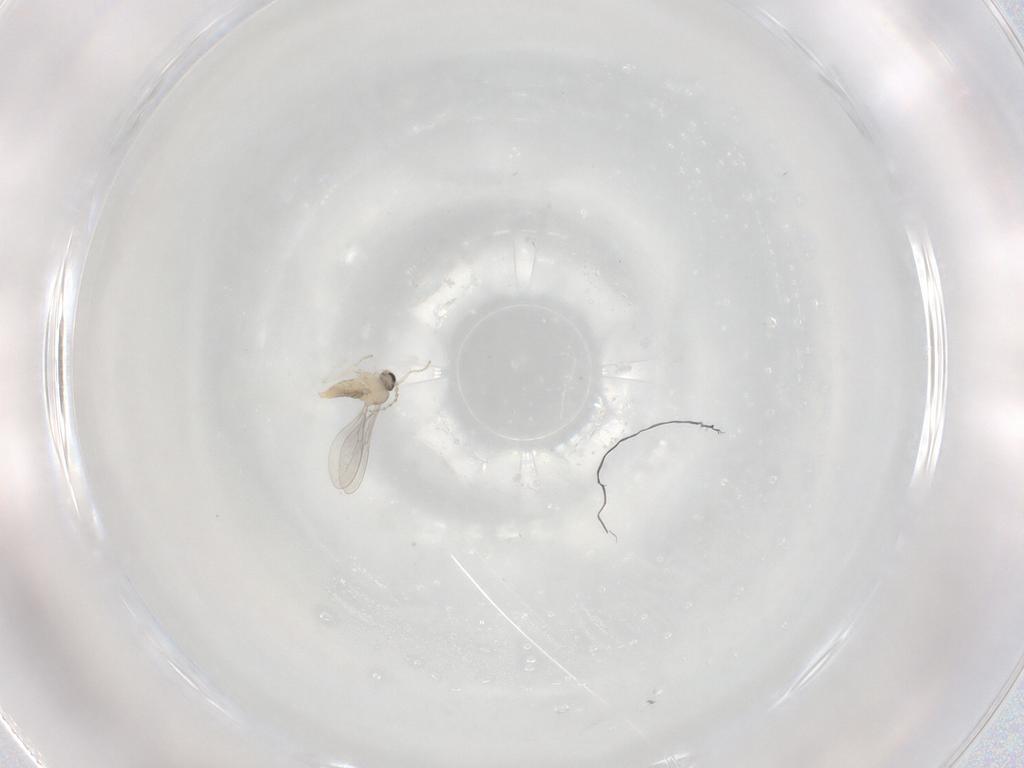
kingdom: Animalia
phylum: Arthropoda
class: Insecta
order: Diptera
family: Cecidomyiidae
